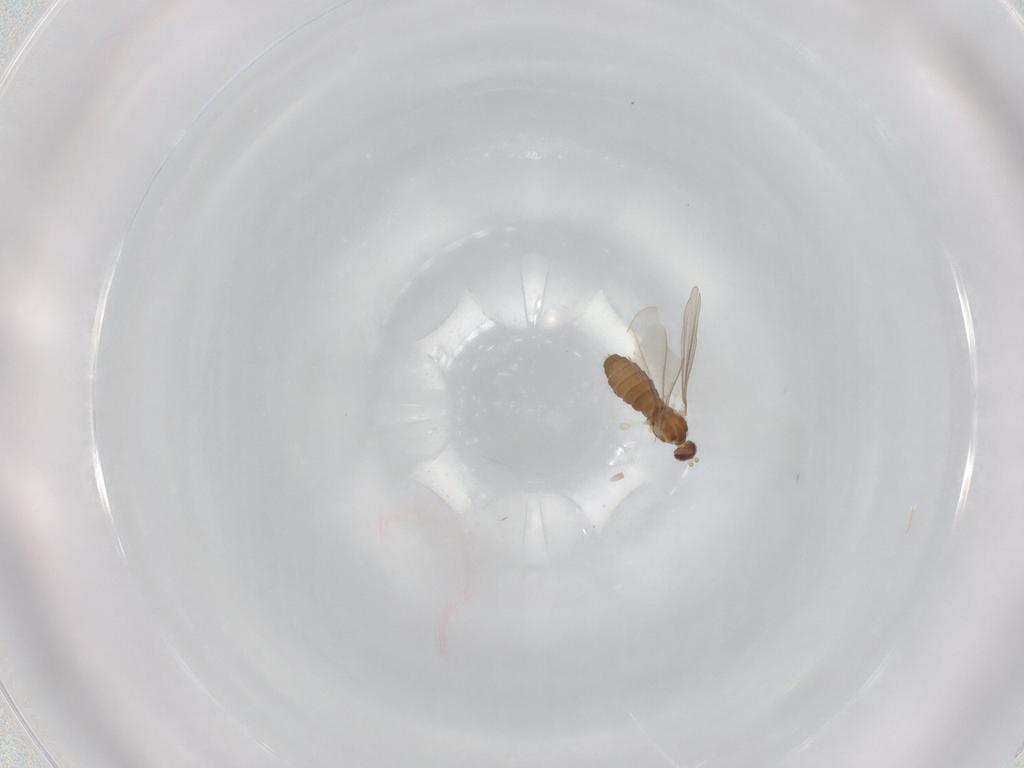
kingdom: Animalia
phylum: Arthropoda
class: Insecta
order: Diptera
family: Cecidomyiidae
